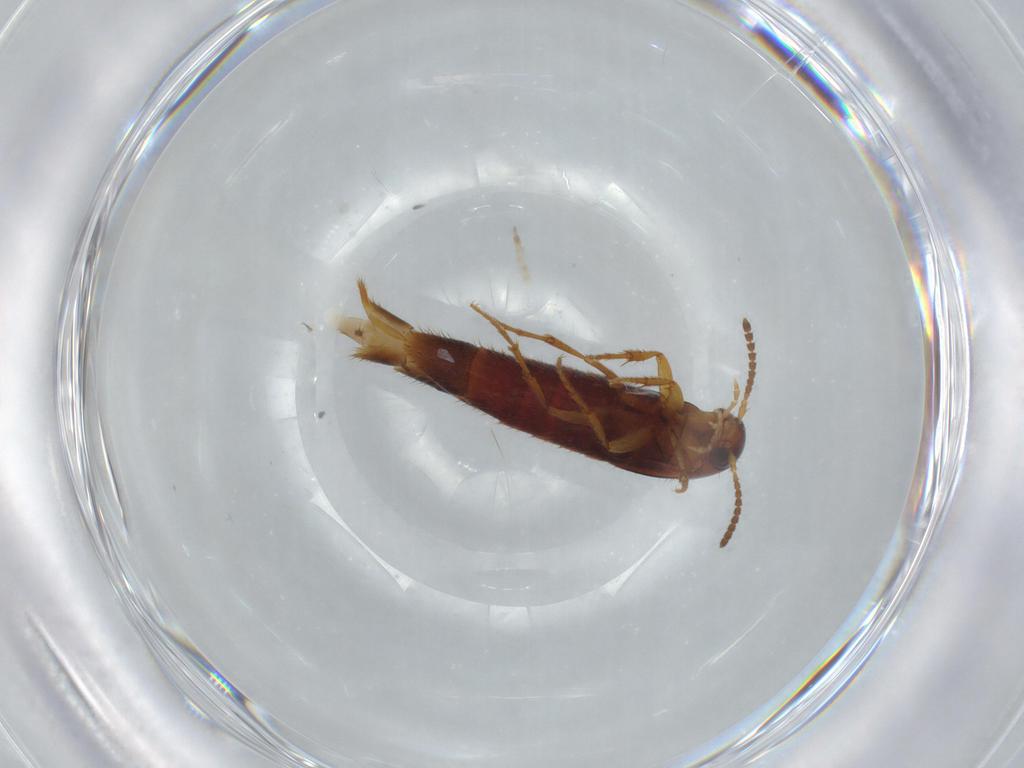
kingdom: Animalia
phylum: Arthropoda
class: Insecta
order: Coleoptera
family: Staphylinidae
